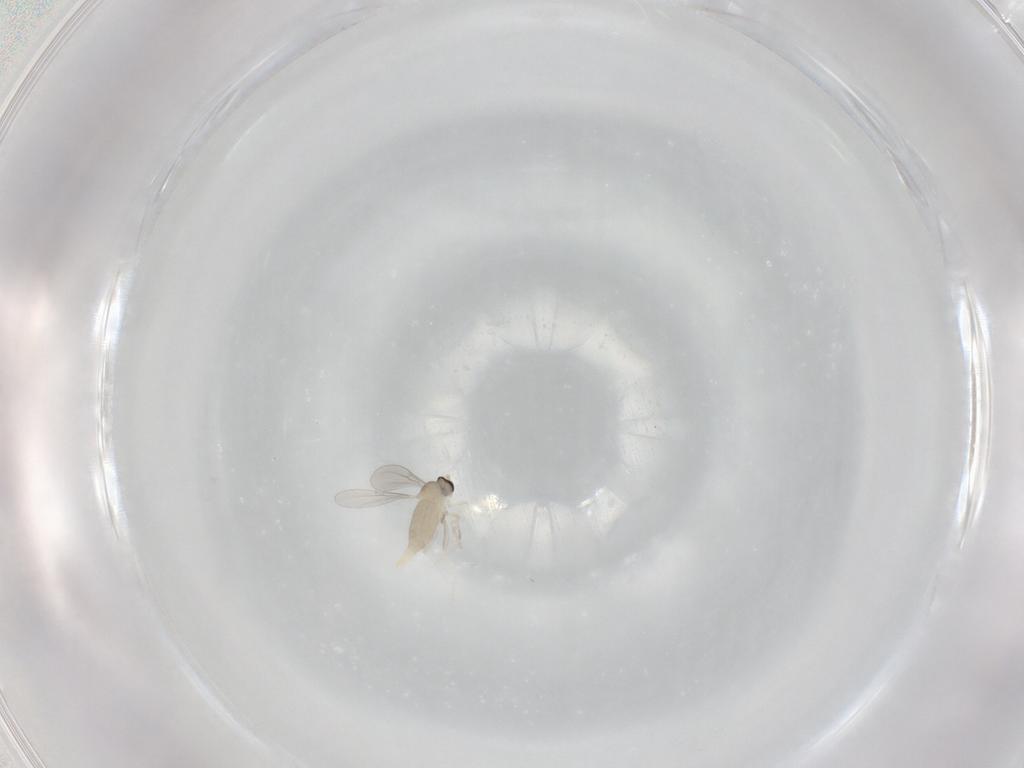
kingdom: Animalia
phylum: Arthropoda
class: Insecta
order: Diptera
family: Cecidomyiidae
